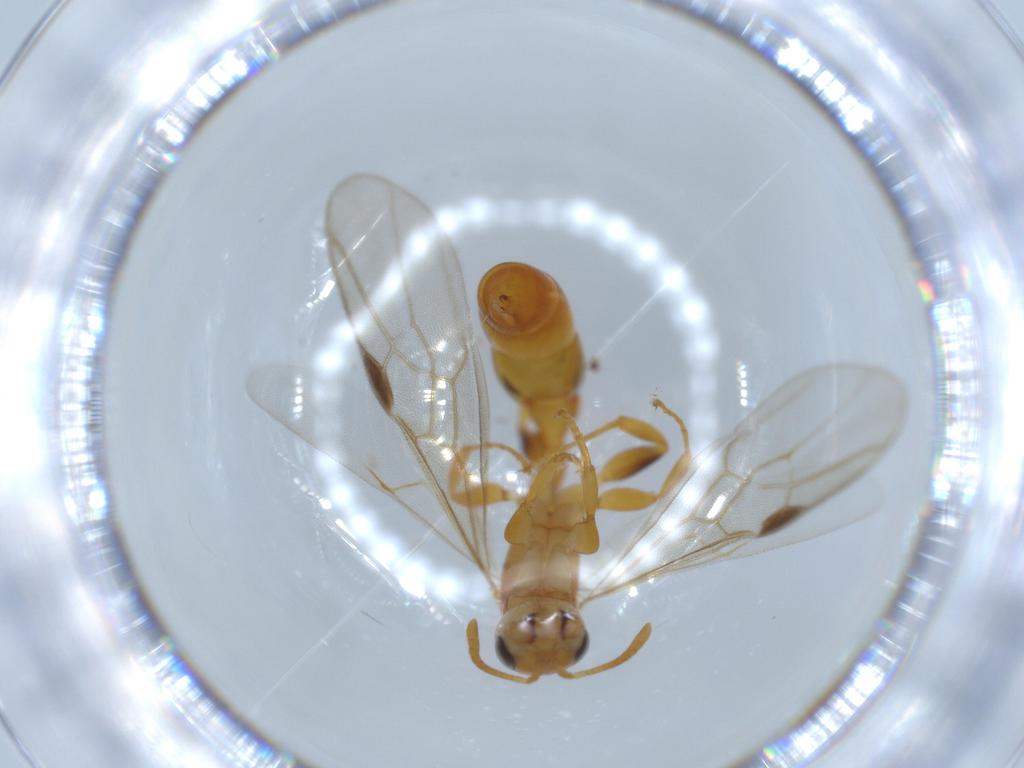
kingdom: Animalia
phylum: Arthropoda
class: Insecta
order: Hymenoptera
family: Formicidae
